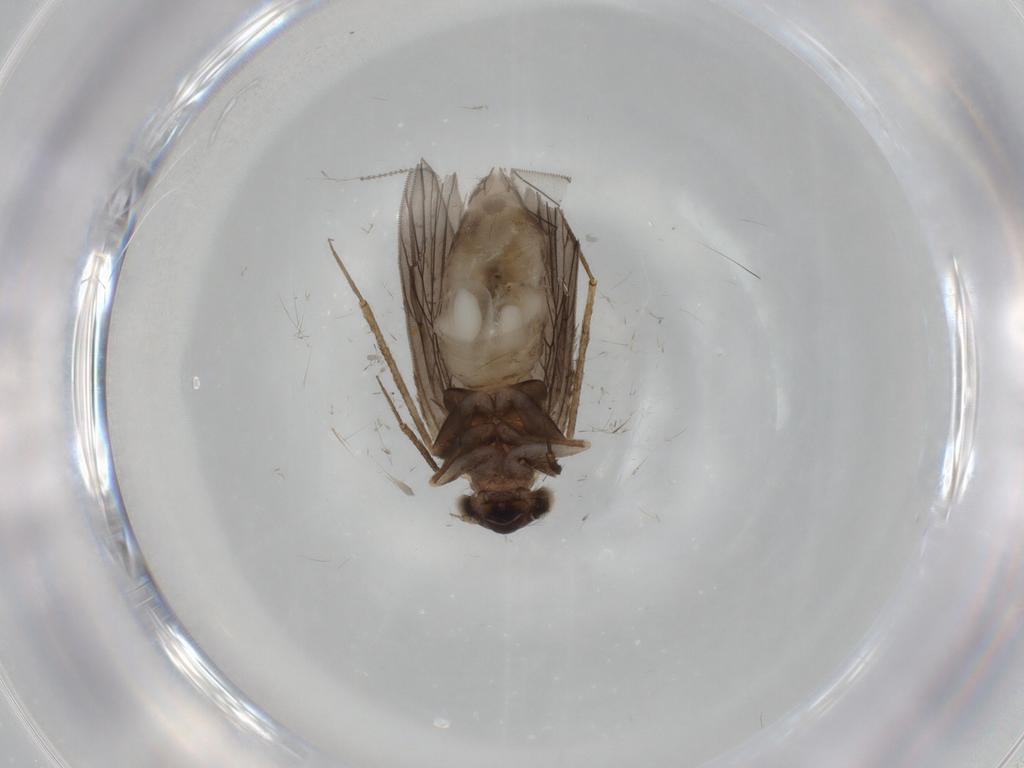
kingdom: Animalia
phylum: Arthropoda
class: Insecta
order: Psocodea
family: Lepidopsocidae
